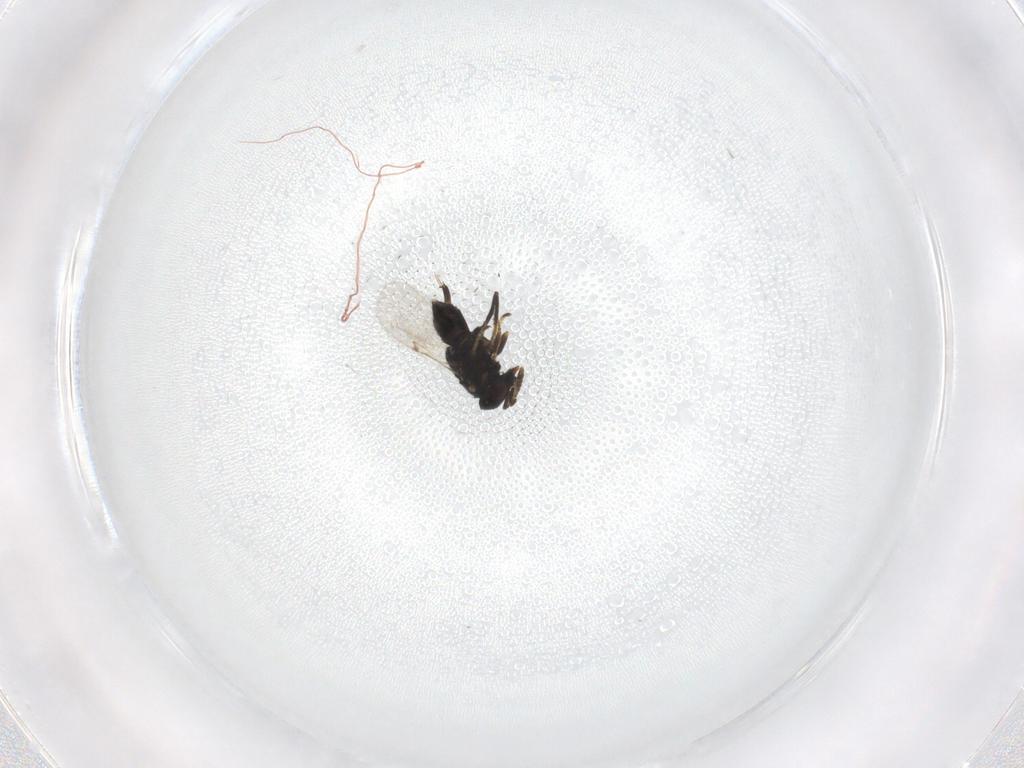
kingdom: Animalia
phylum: Arthropoda
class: Insecta
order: Hymenoptera
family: Encyrtidae
